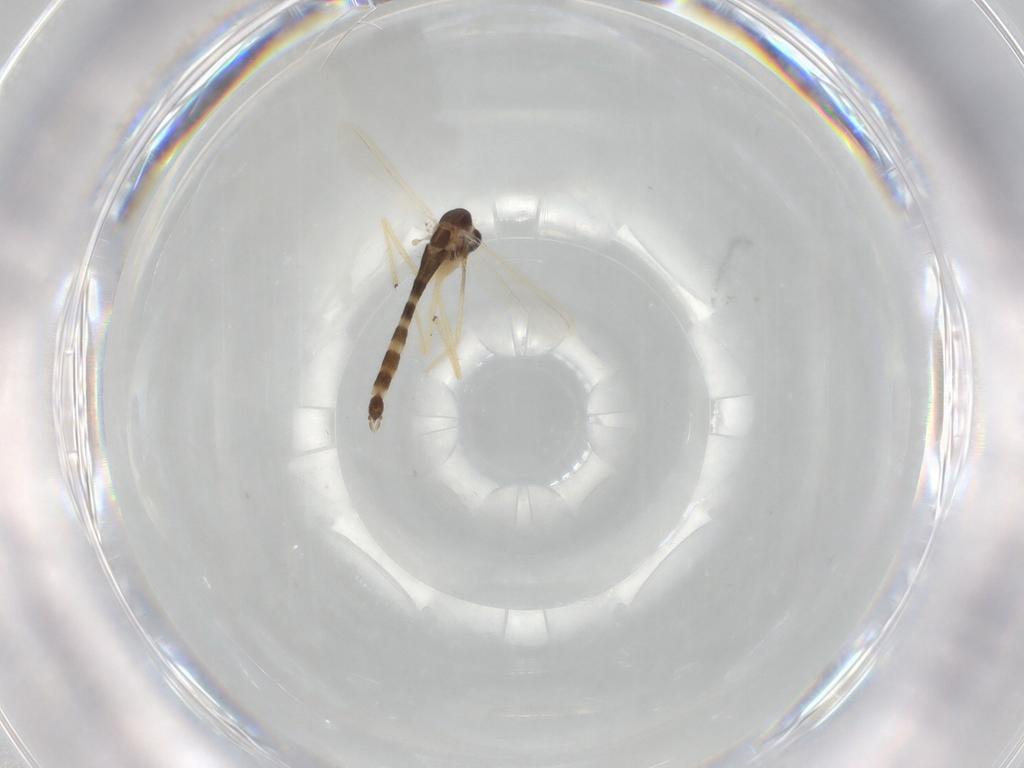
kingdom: Animalia
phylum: Arthropoda
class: Insecta
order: Diptera
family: Chironomidae
